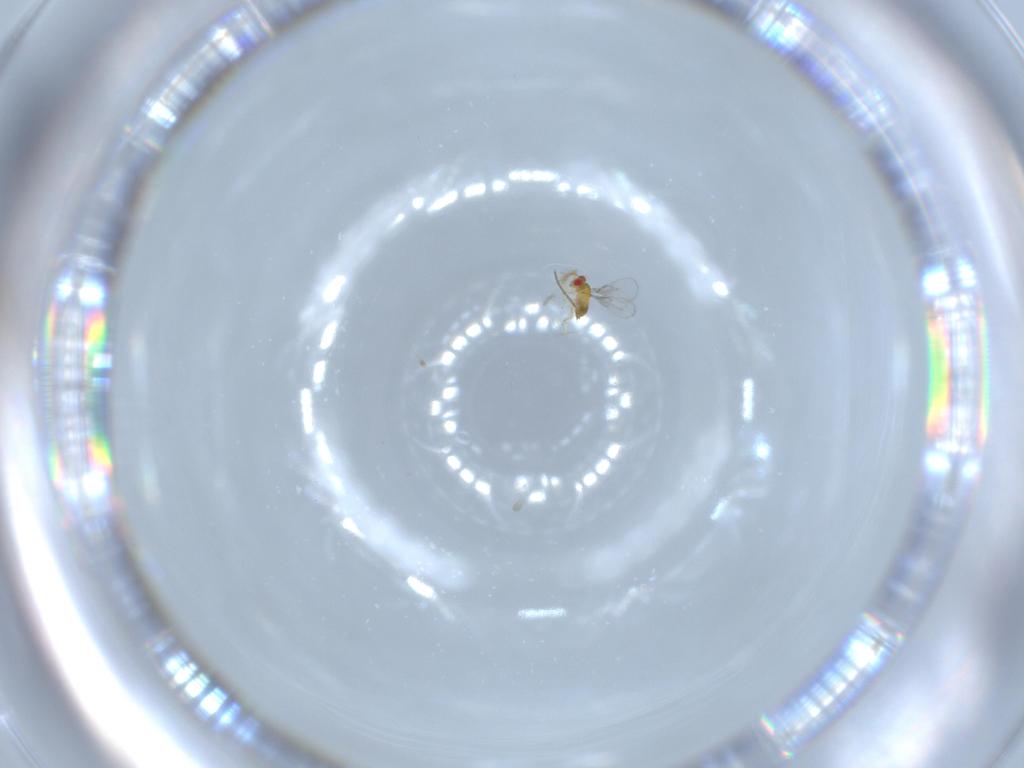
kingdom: Animalia
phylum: Arthropoda
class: Insecta
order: Hymenoptera
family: Trichogrammatidae
